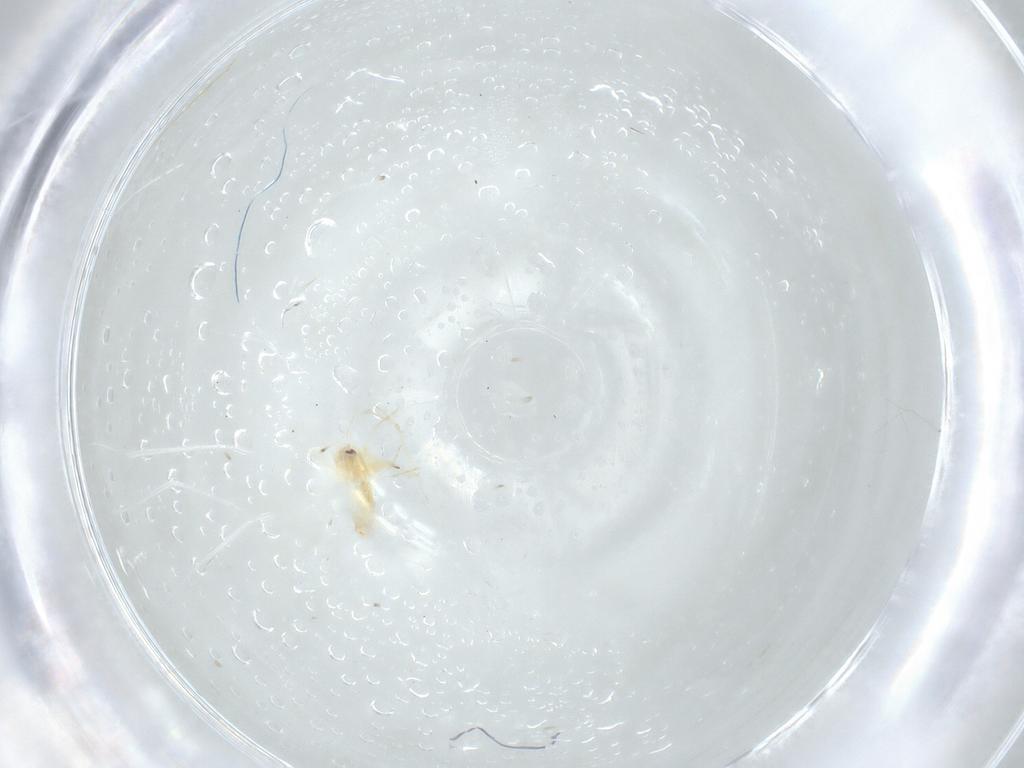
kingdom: Animalia
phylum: Arthropoda
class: Insecta
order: Hemiptera
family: Aleyrodidae
